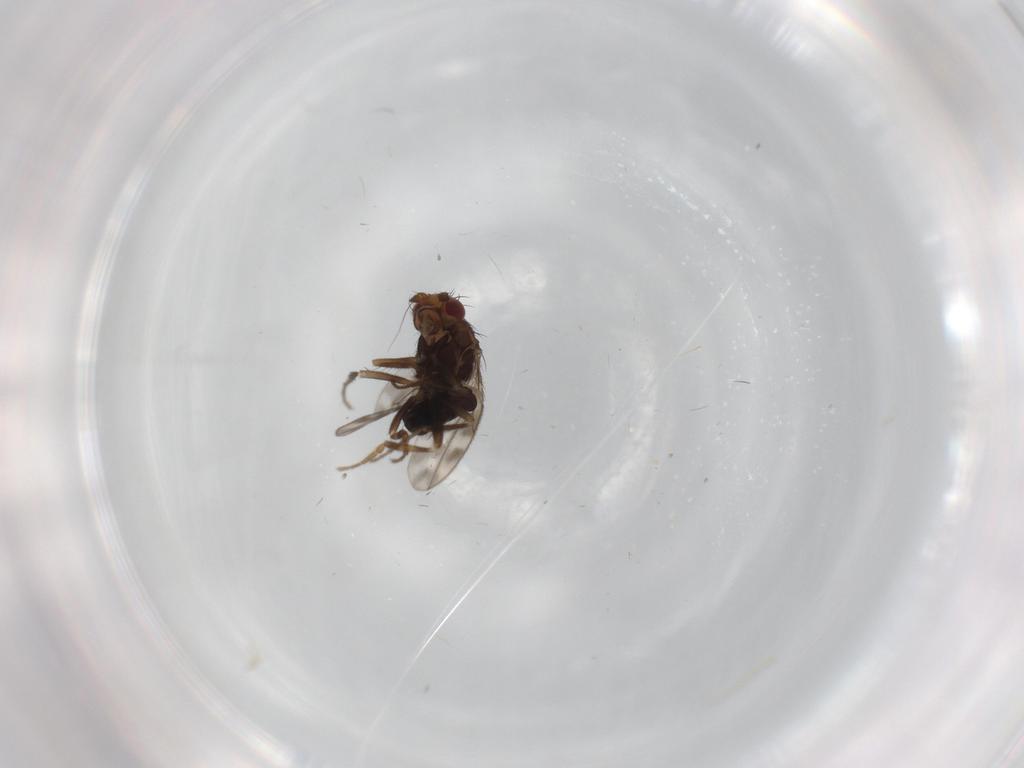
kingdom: Animalia
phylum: Arthropoda
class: Insecta
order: Diptera
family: Sphaeroceridae
